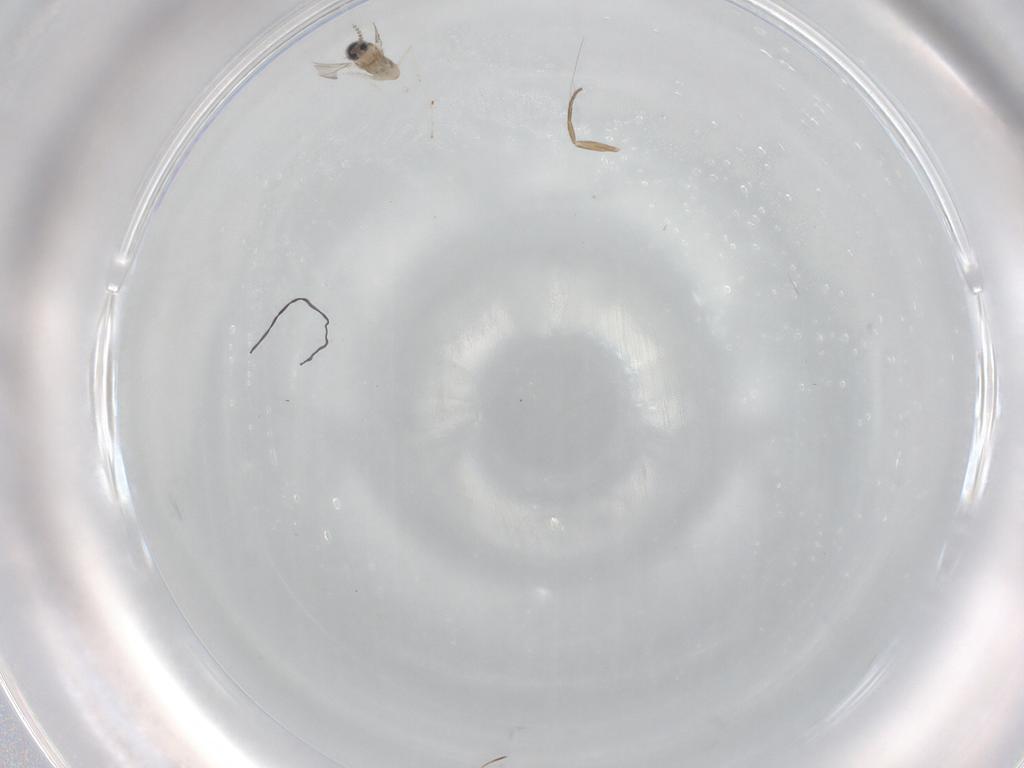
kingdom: Animalia
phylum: Arthropoda
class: Insecta
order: Diptera
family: Cecidomyiidae
